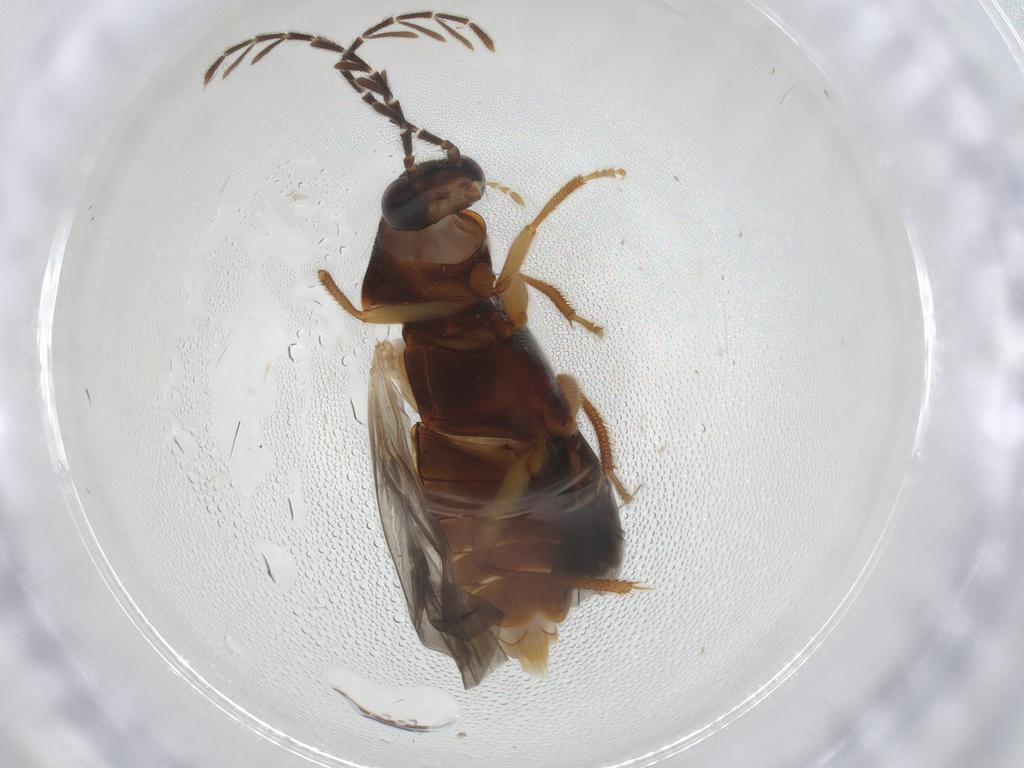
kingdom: Animalia
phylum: Arthropoda
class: Insecta
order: Coleoptera
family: Ptilodactylidae
